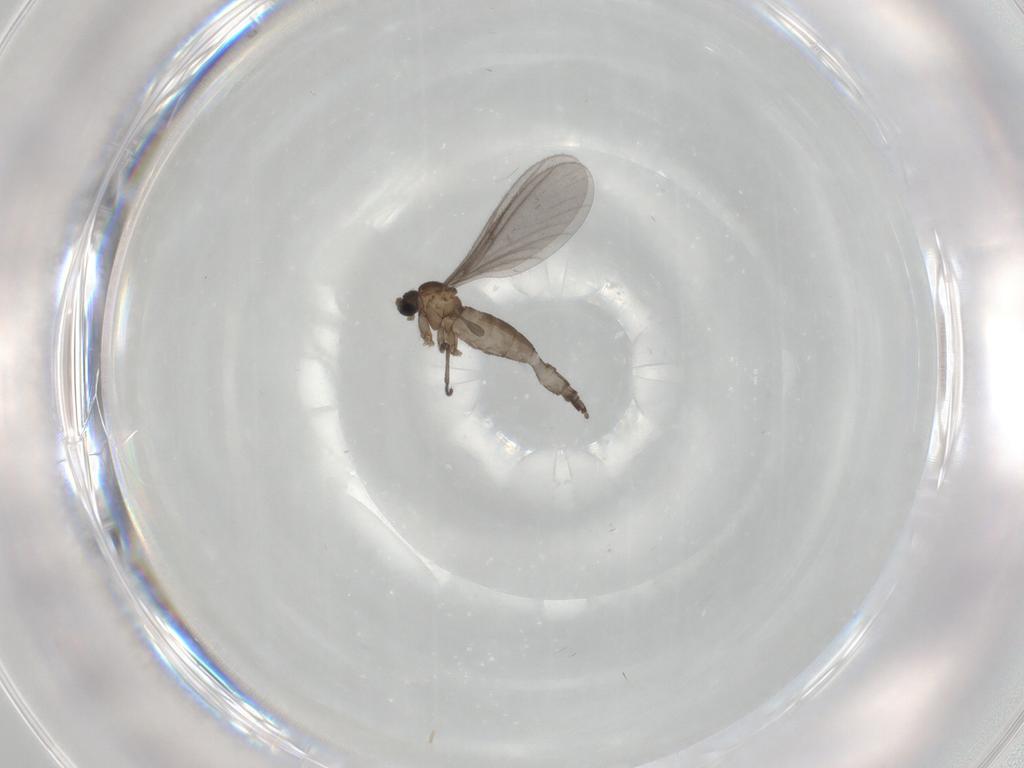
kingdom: Animalia
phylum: Arthropoda
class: Insecta
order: Diptera
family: Sciaridae
